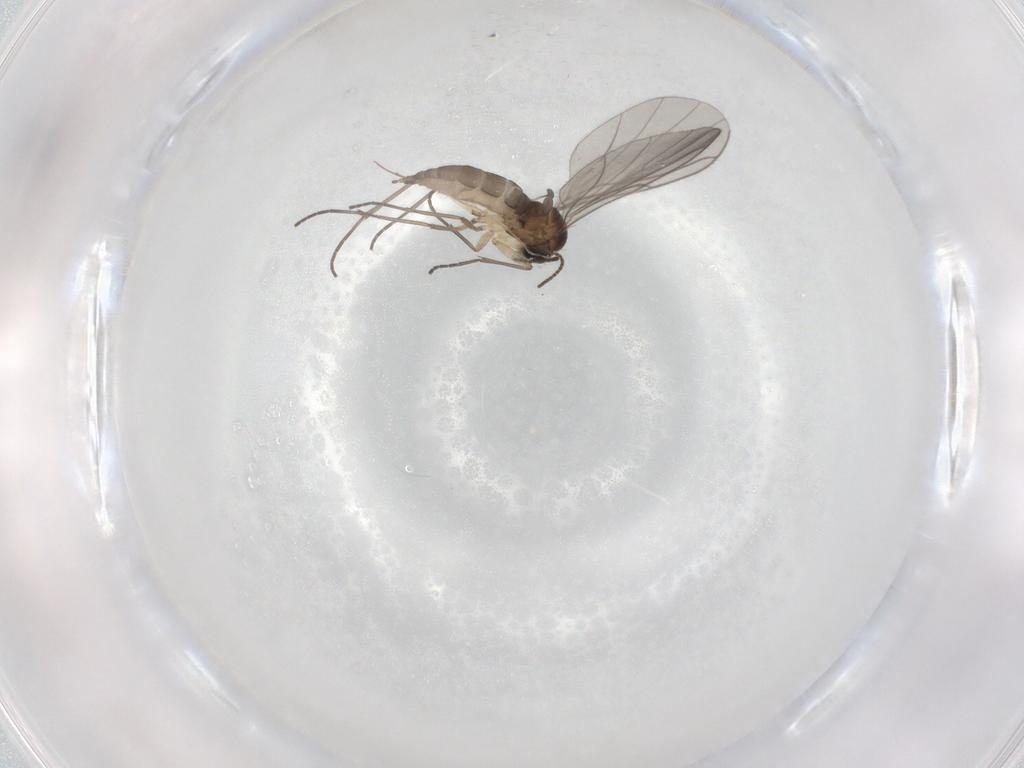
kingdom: Animalia
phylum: Arthropoda
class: Insecta
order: Diptera
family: Sciaridae
